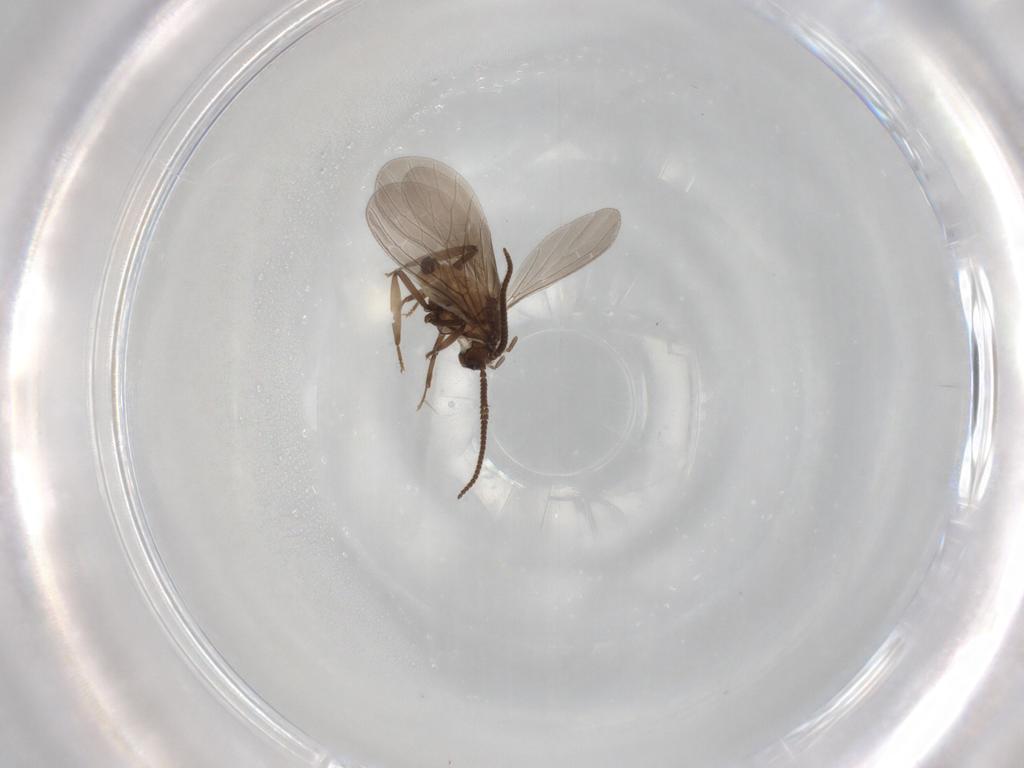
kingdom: Animalia
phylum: Arthropoda
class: Insecta
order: Neuroptera
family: Coniopterygidae
